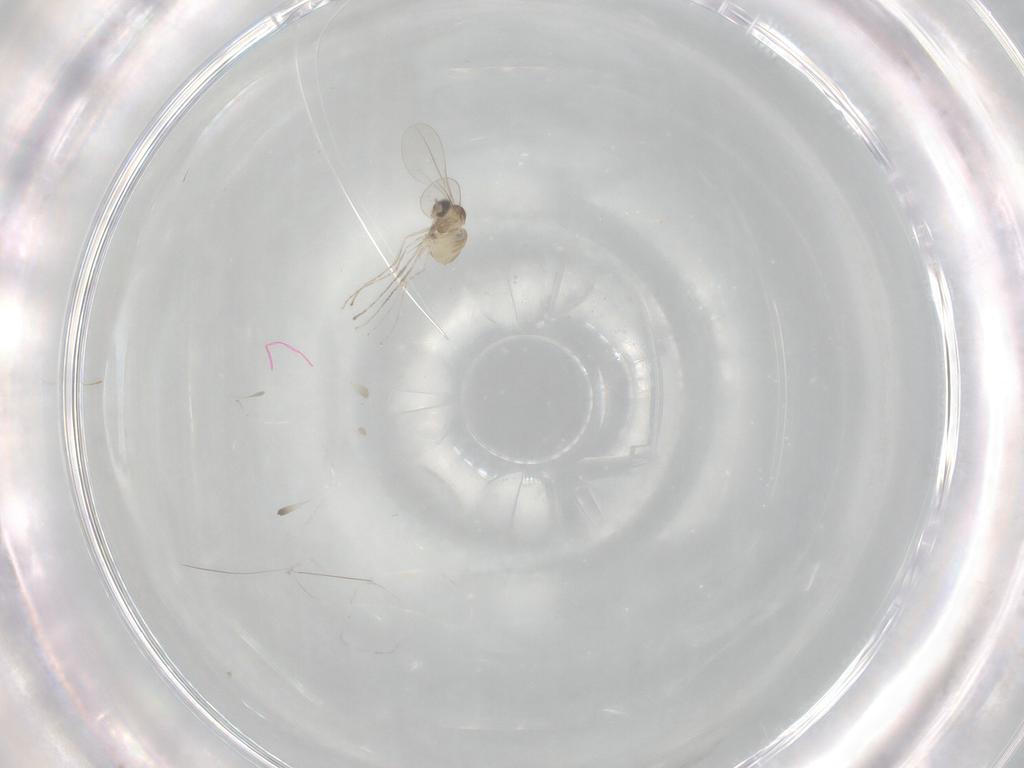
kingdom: Animalia
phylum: Arthropoda
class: Insecta
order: Diptera
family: Cecidomyiidae
